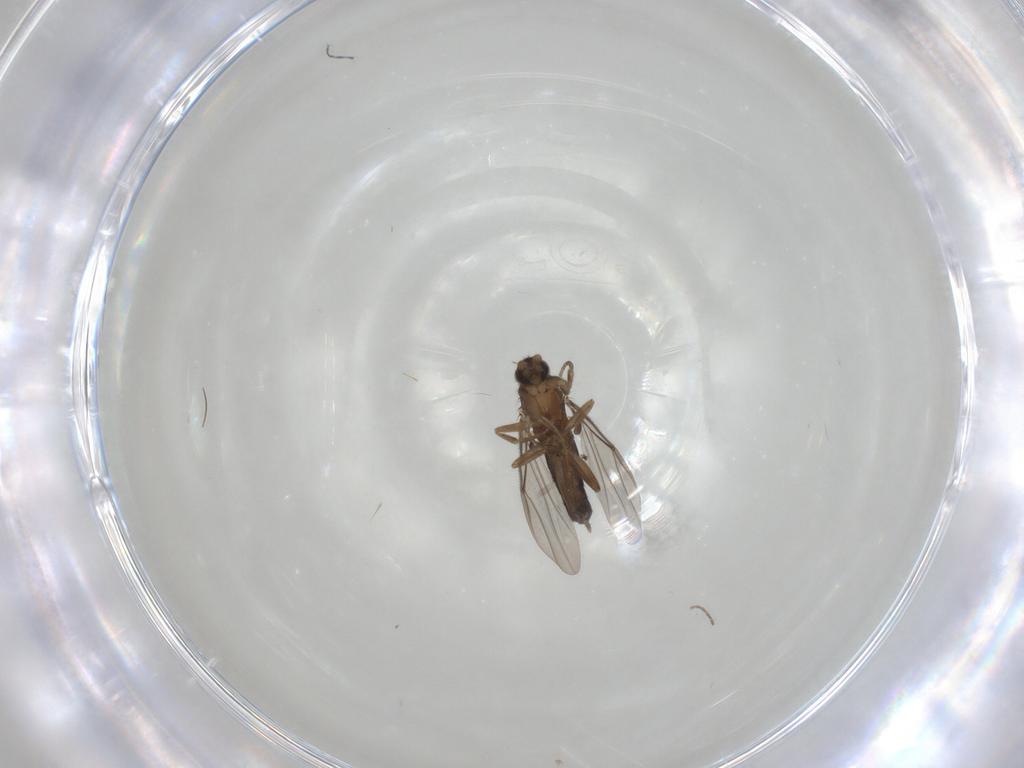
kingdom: Animalia
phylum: Arthropoda
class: Insecta
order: Diptera
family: Phoridae
